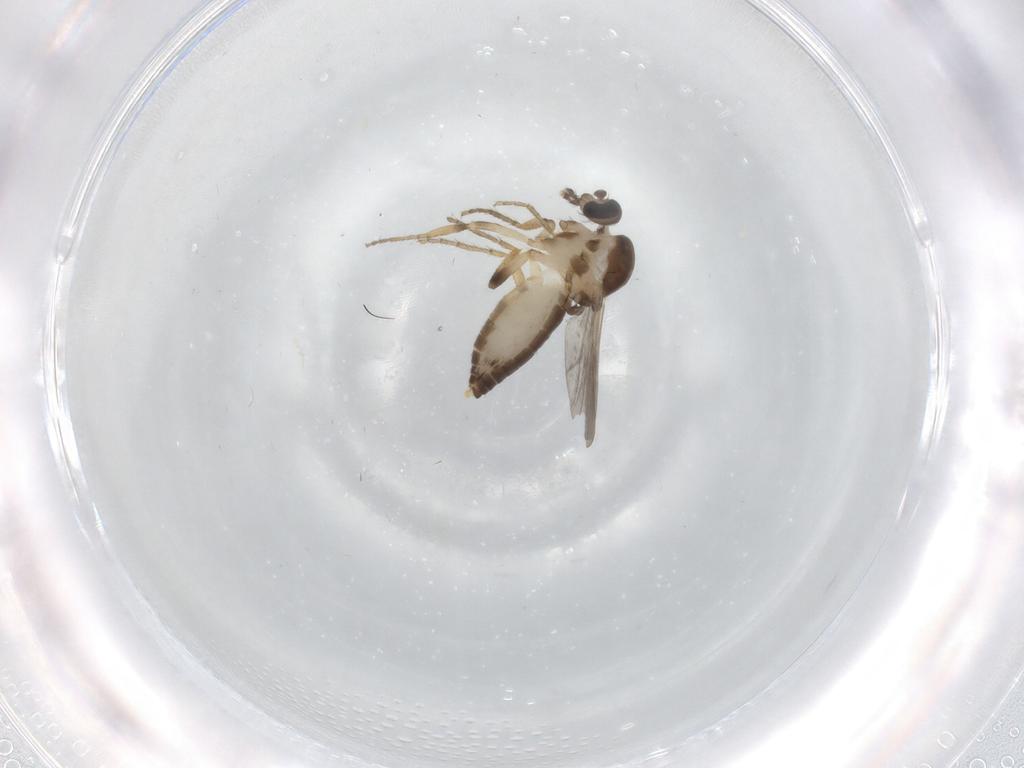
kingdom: Animalia
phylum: Arthropoda
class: Insecta
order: Diptera
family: Ceratopogonidae
